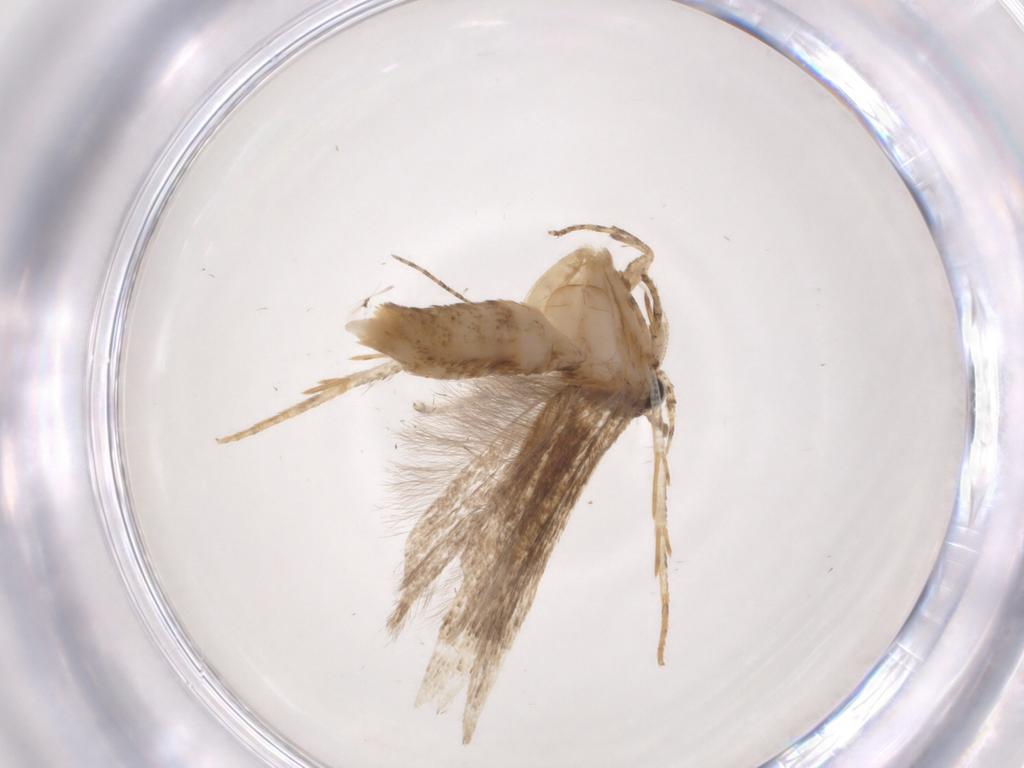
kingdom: Animalia
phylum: Arthropoda
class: Insecta
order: Lepidoptera
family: Gelechiidae
